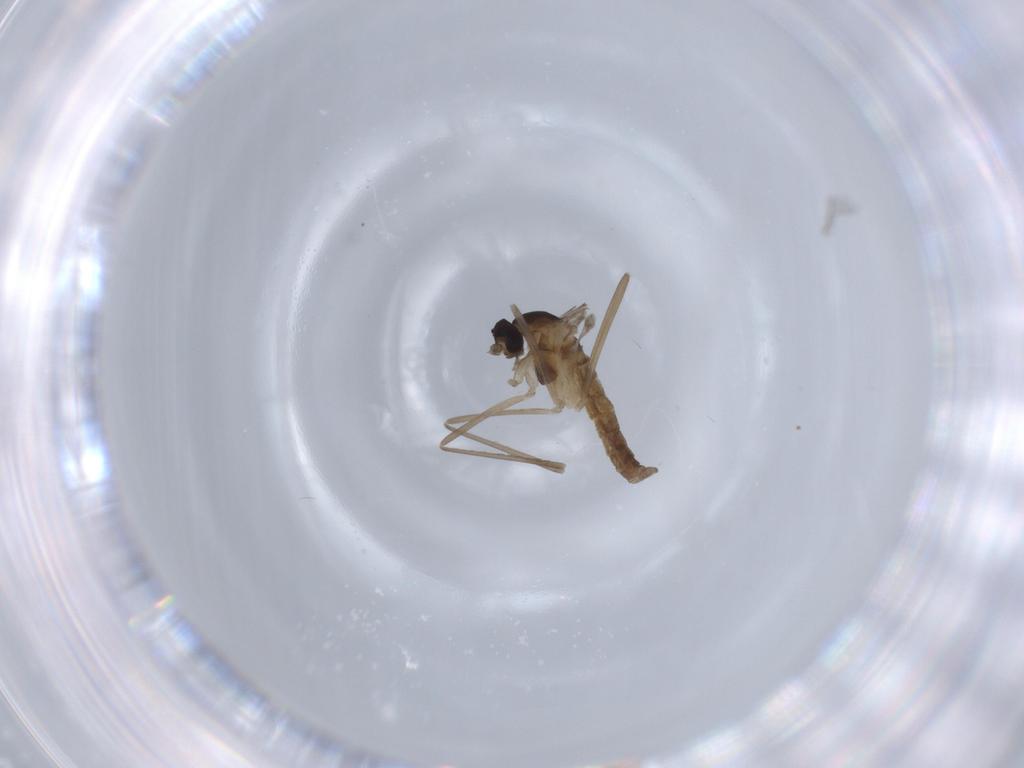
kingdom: Animalia
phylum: Arthropoda
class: Insecta
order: Diptera
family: Cecidomyiidae
